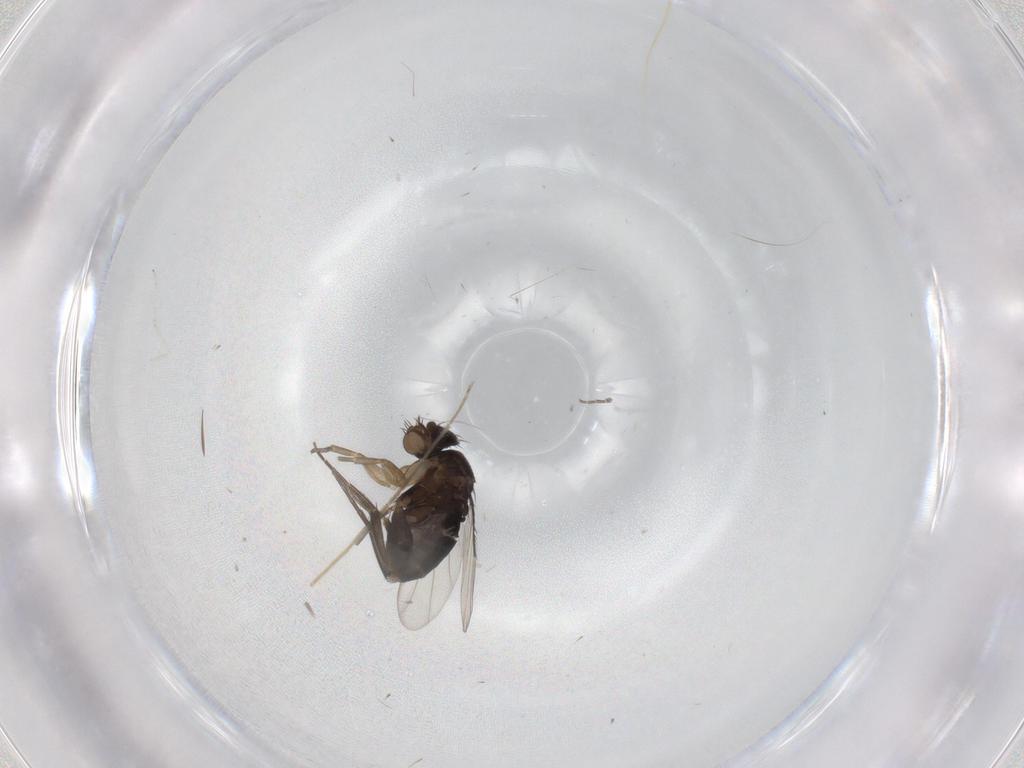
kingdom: Animalia
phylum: Arthropoda
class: Insecta
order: Diptera
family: Phoridae
